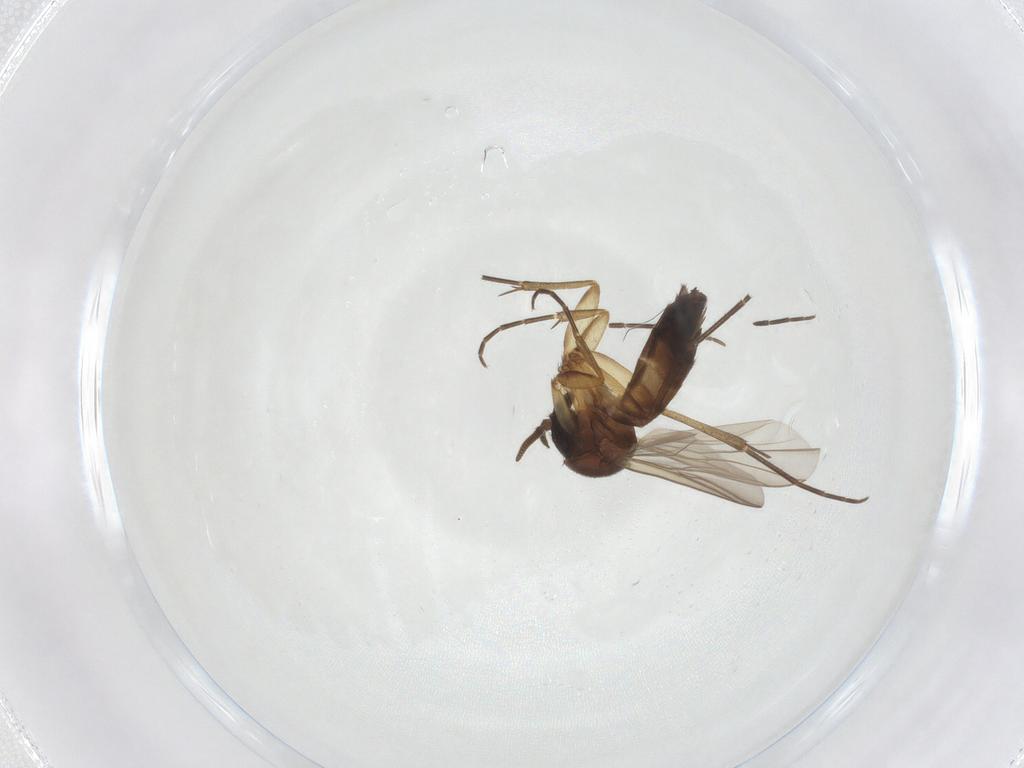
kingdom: Animalia
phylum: Arthropoda
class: Insecta
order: Diptera
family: Mycetophilidae
